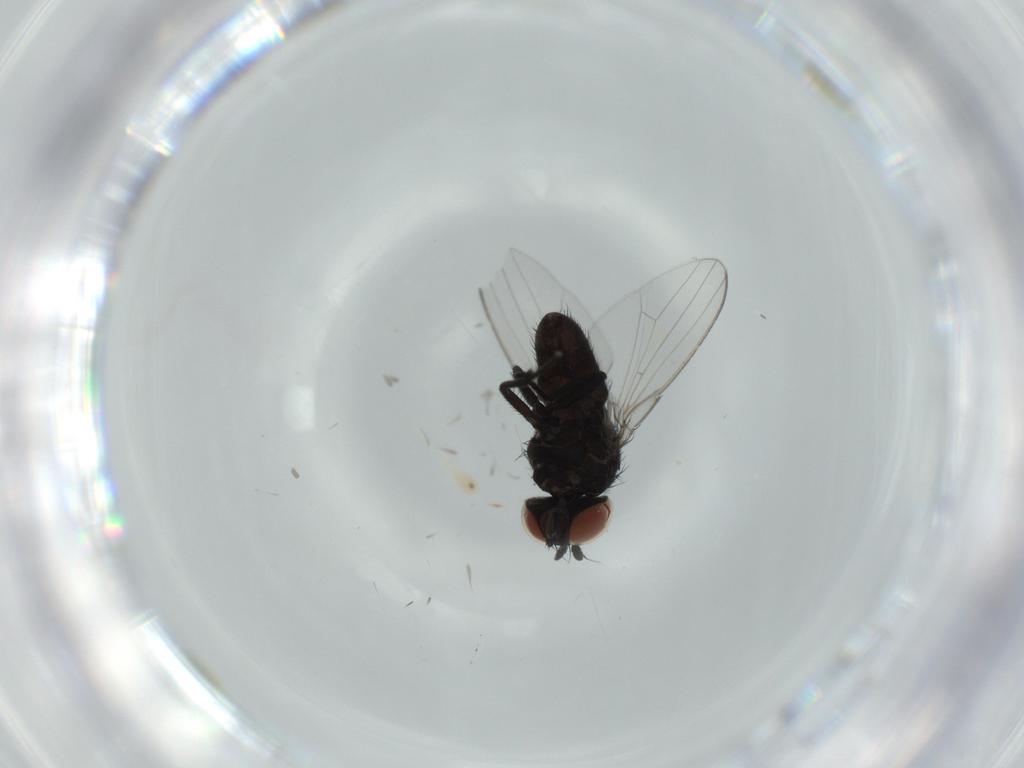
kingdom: Animalia
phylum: Arthropoda
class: Insecta
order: Diptera
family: Milichiidae
